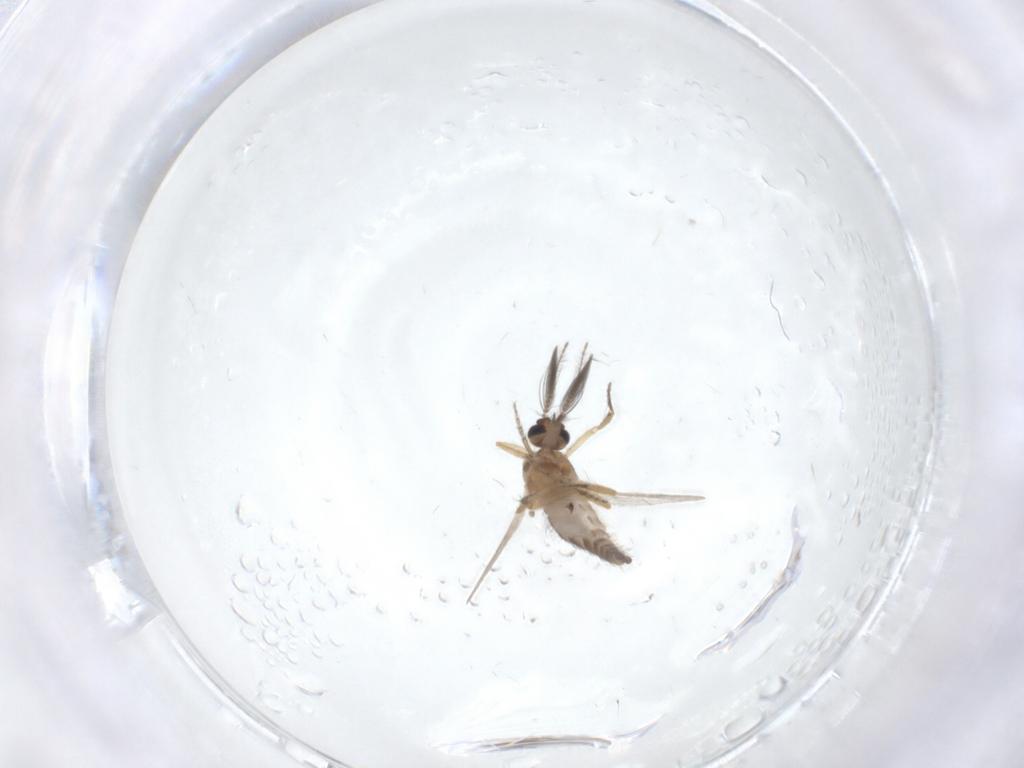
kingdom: Animalia
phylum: Arthropoda
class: Insecta
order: Diptera
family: Ceratopogonidae
